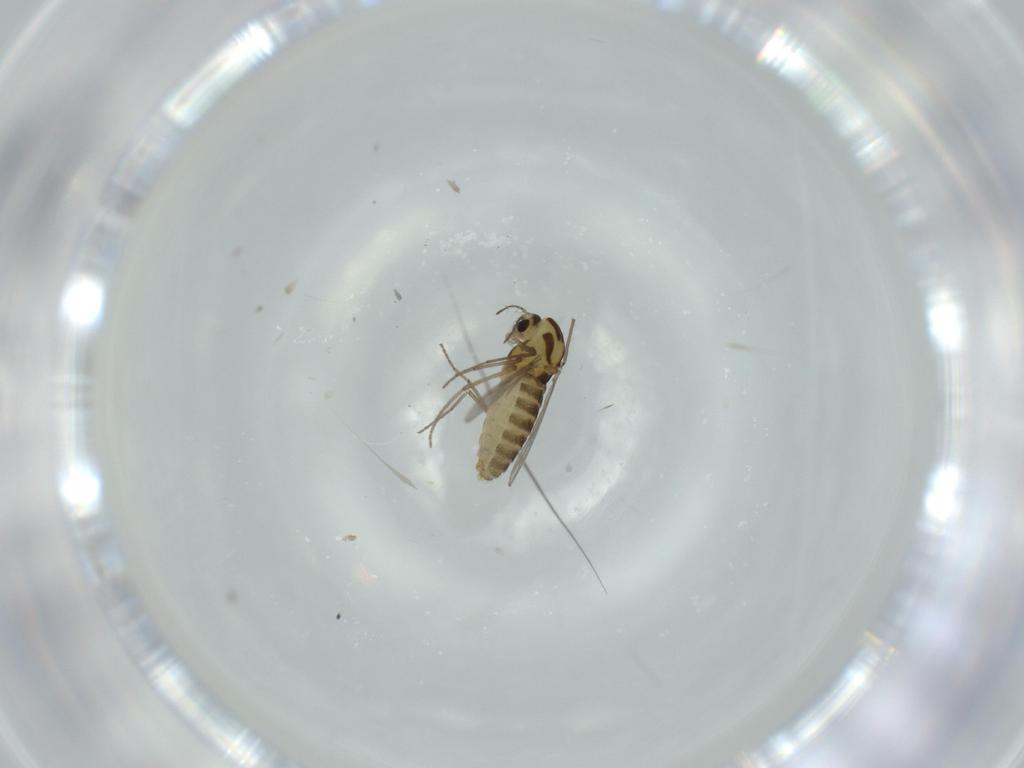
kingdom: Animalia
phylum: Arthropoda
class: Insecta
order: Diptera
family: Chironomidae
